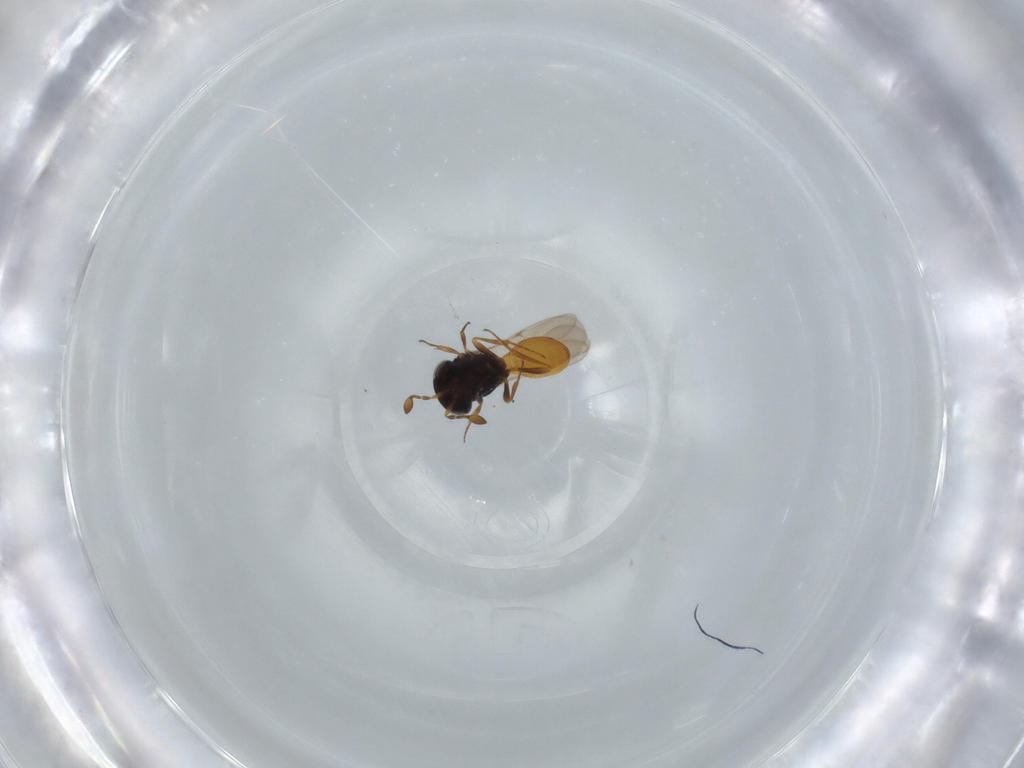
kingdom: Animalia
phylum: Arthropoda
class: Insecta
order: Hymenoptera
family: Scelionidae
